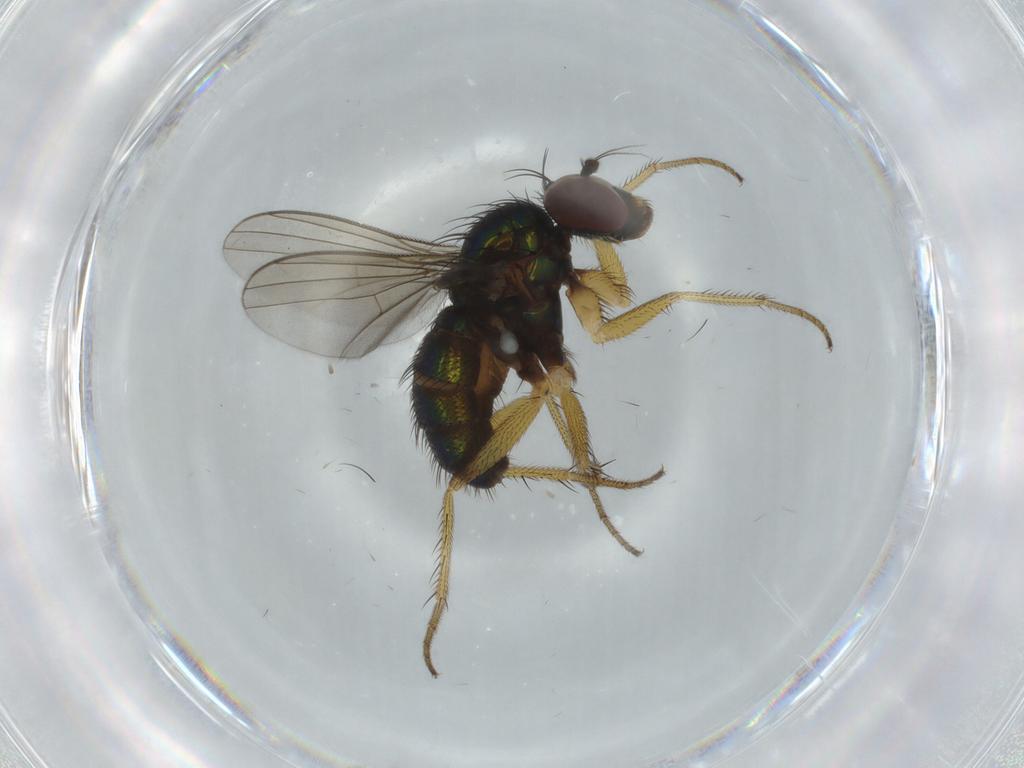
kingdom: Animalia
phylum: Arthropoda
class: Insecta
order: Diptera
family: Dolichopodidae
